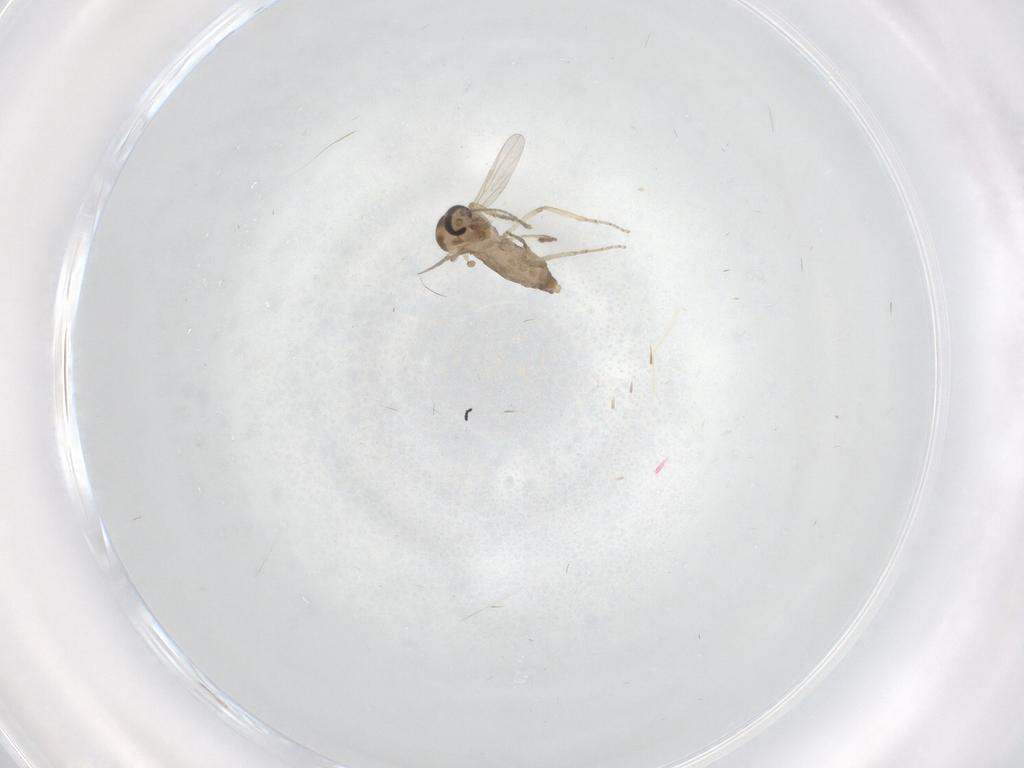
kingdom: Animalia
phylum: Arthropoda
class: Insecta
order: Diptera
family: Ceratopogonidae
